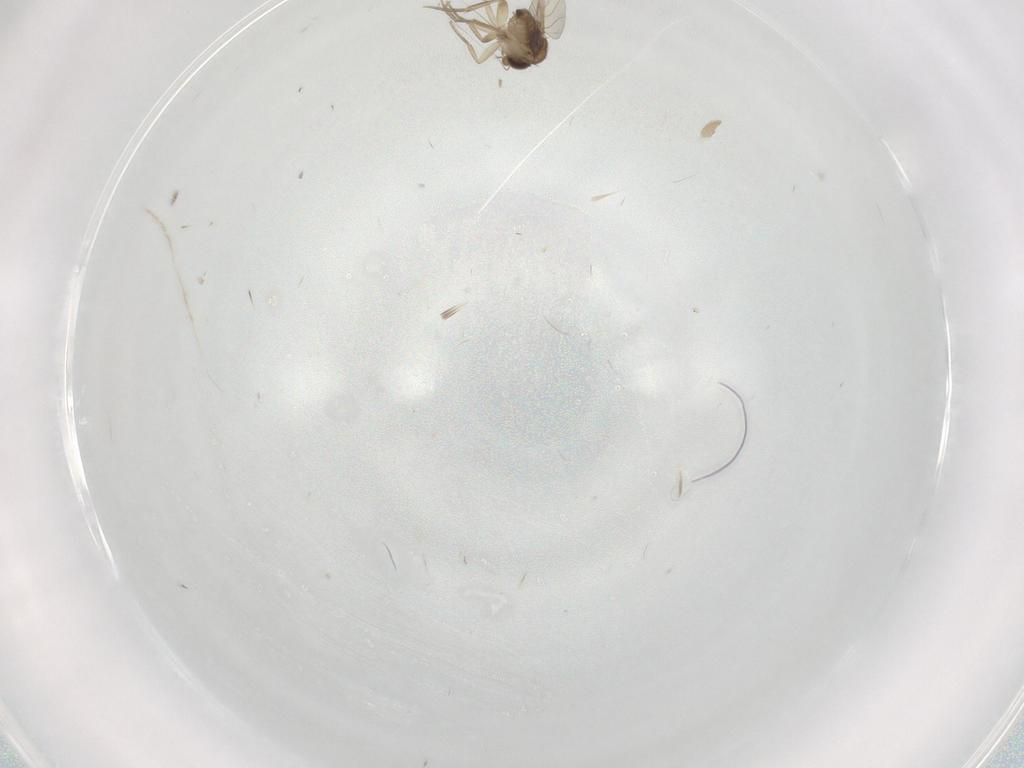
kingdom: Animalia
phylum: Arthropoda
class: Insecta
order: Diptera
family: Phoridae
